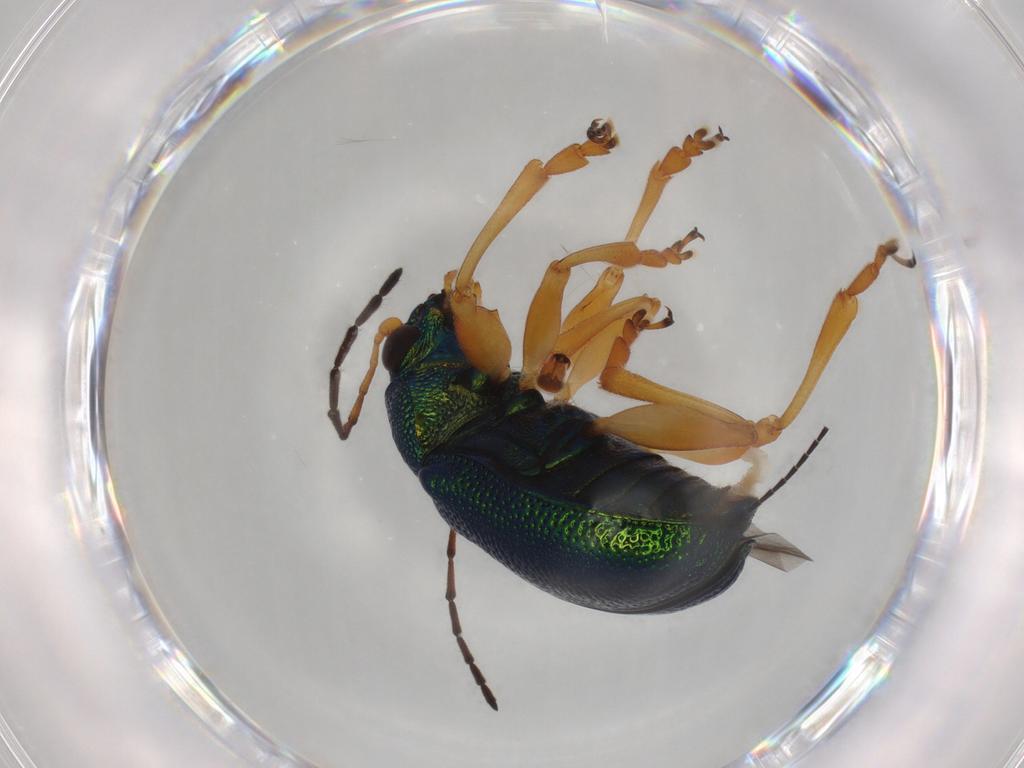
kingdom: Animalia
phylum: Arthropoda
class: Insecta
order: Coleoptera
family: Chrysomelidae
